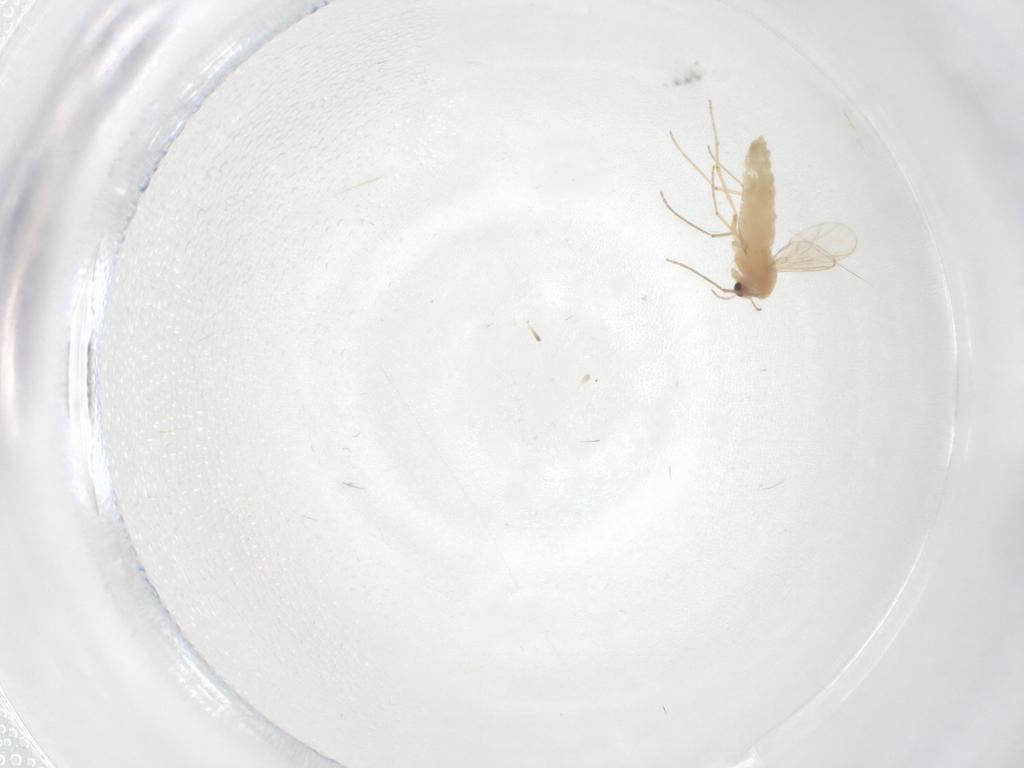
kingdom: Animalia
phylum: Arthropoda
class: Insecta
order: Diptera
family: Chironomidae
